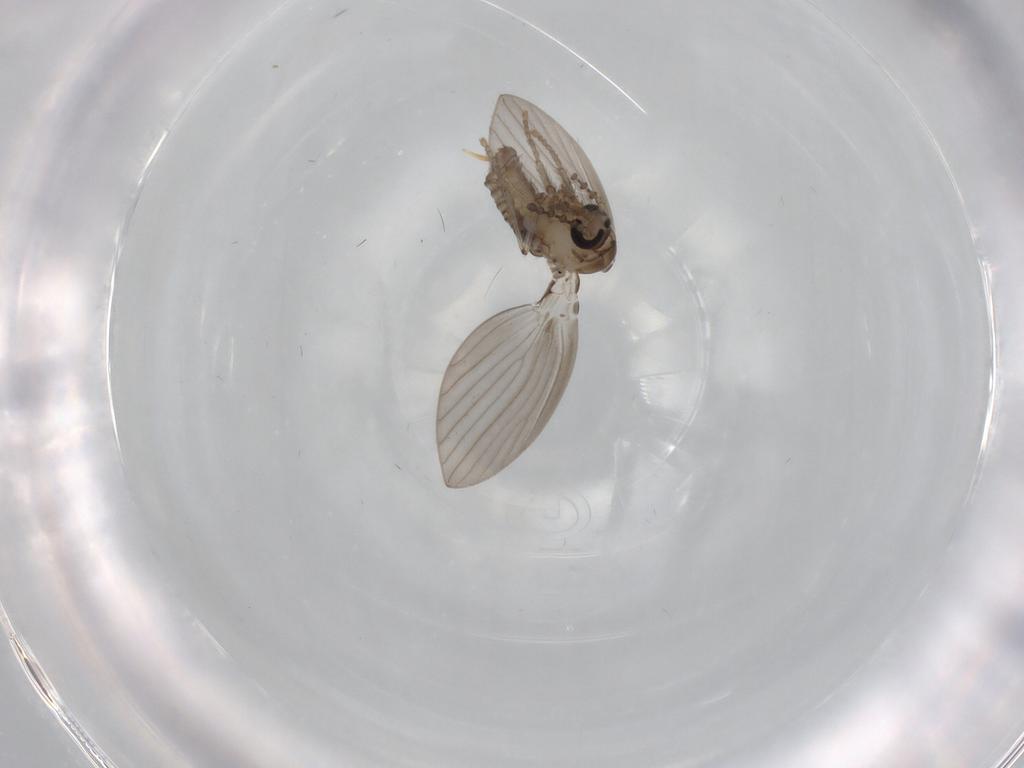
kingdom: Animalia
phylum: Arthropoda
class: Insecta
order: Diptera
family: Psychodidae
